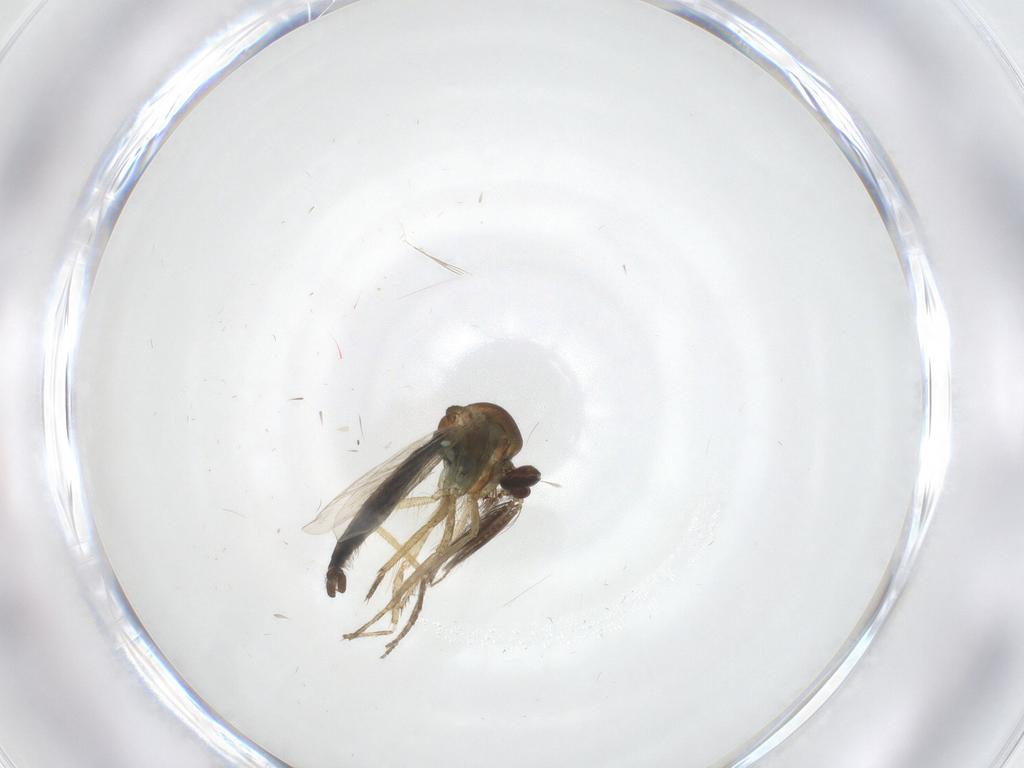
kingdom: Animalia
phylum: Arthropoda
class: Insecta
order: Diptera
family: Ceratopogonidae
